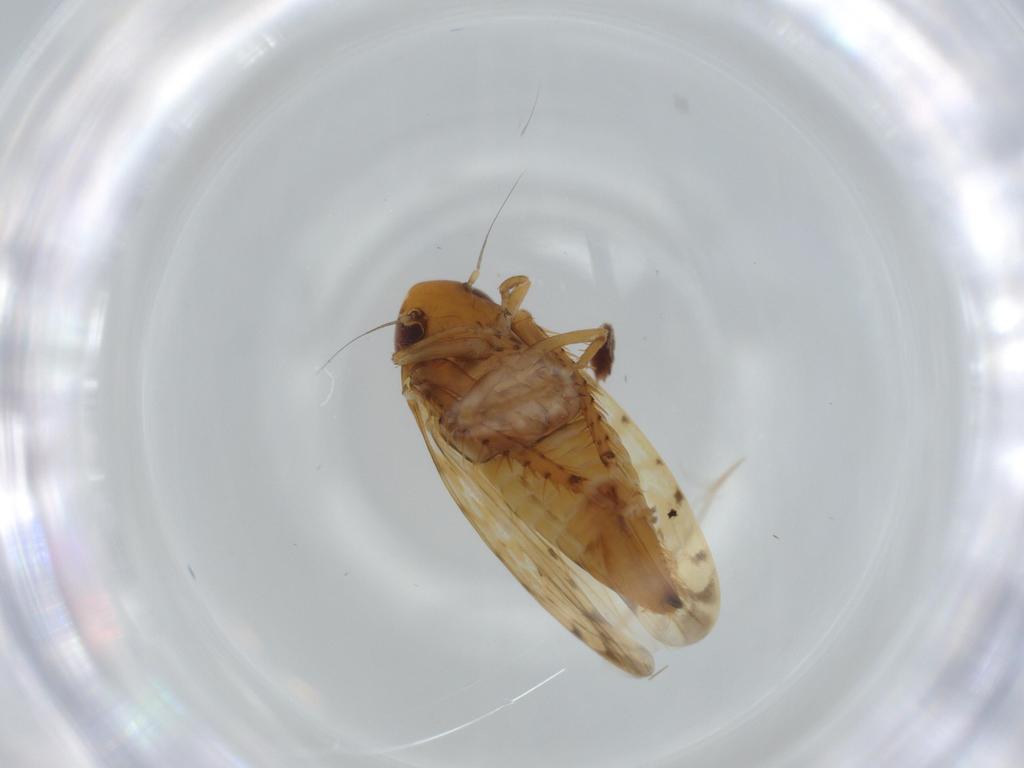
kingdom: Animalia
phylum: Arthropoda
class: Insecta
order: Hemiptera
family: Cicadellidae
